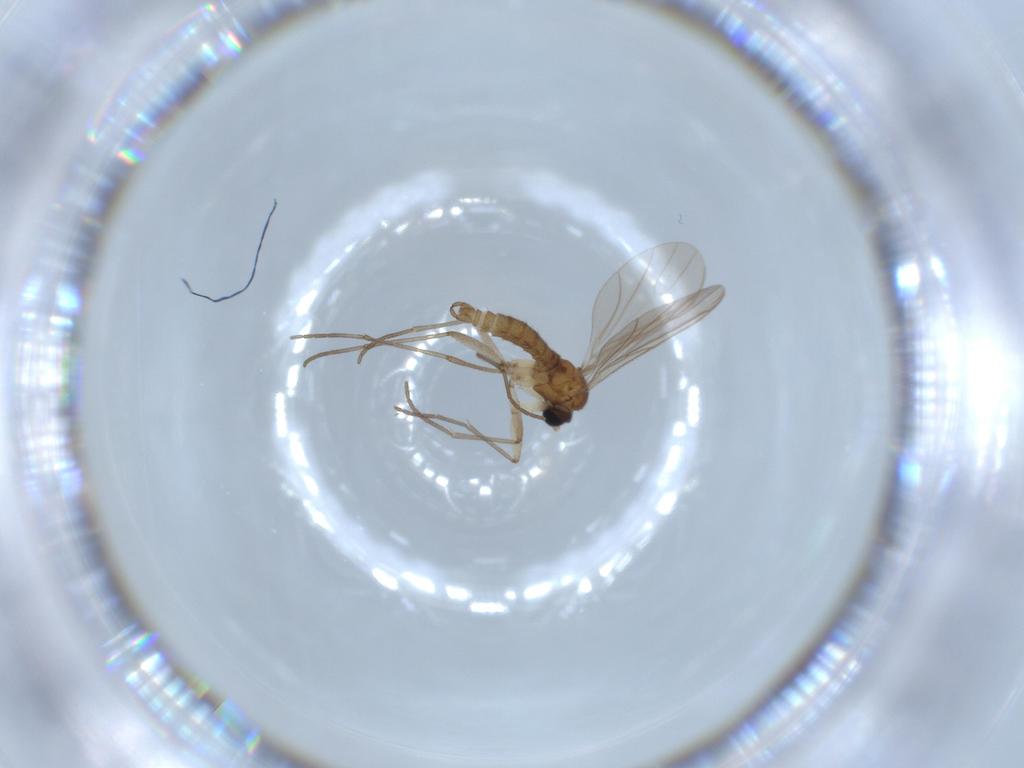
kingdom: Animalia
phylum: Arthropoda
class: Insecta
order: Diptera
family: Sciaridae
